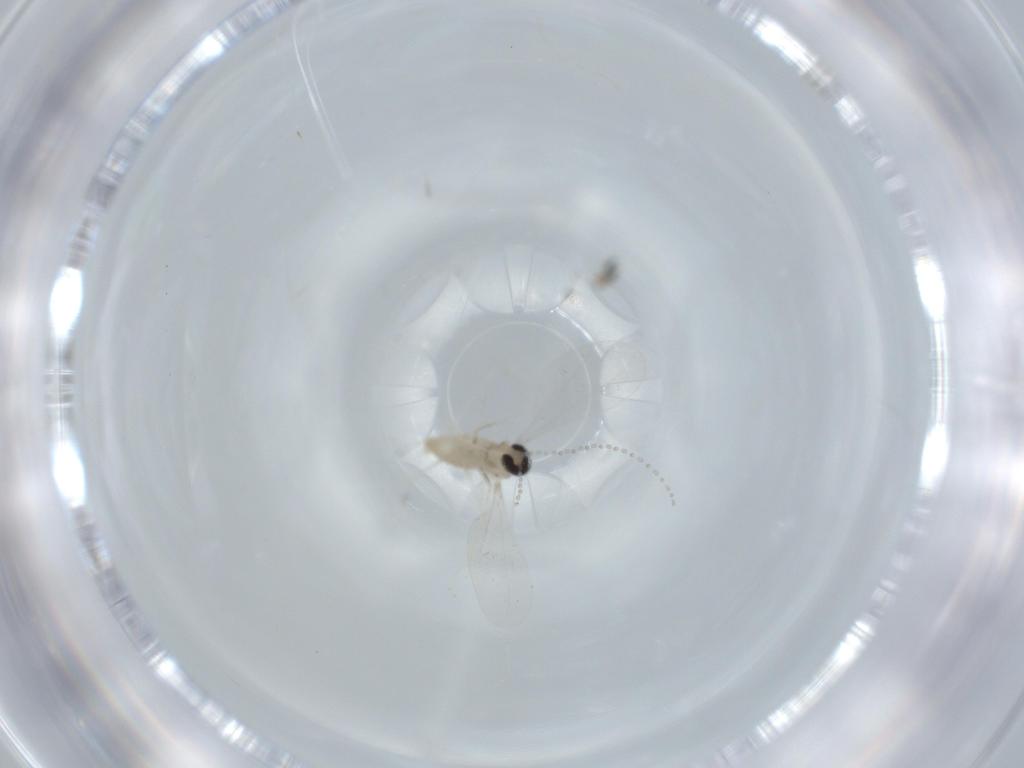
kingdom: Animalia
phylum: Arthropoda
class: Insecta
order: Diptera
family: Cecidomyiidae
